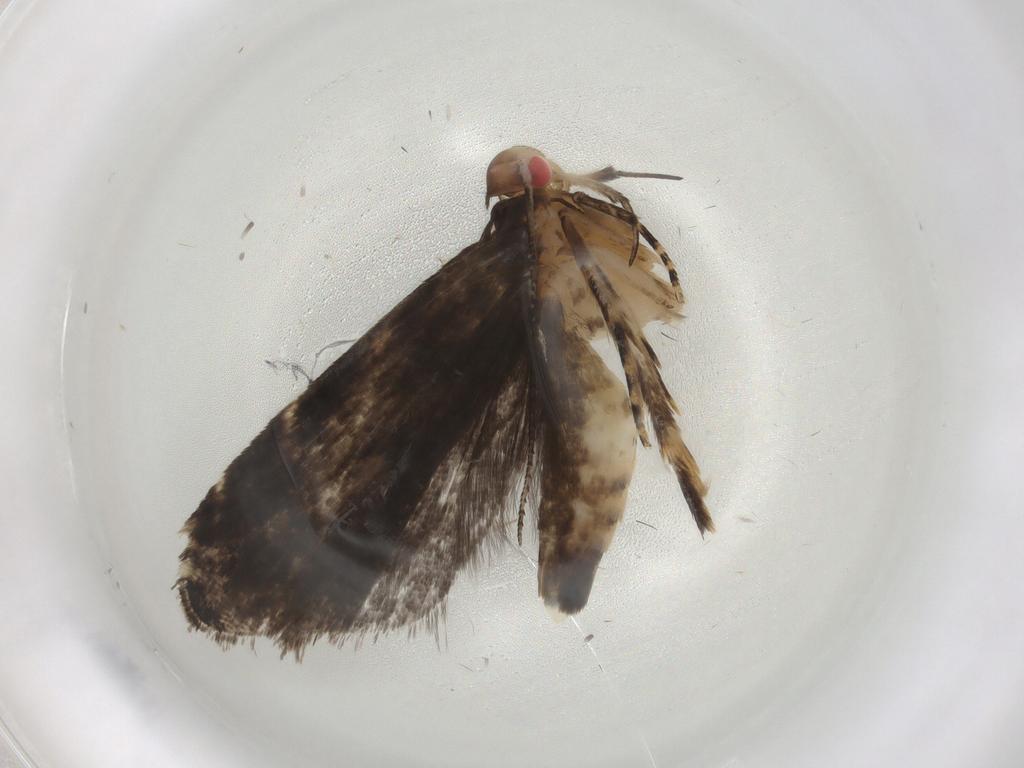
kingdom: Animalia
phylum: Arthropoda
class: Insecta
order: Lepidoptera
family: Crambidae
